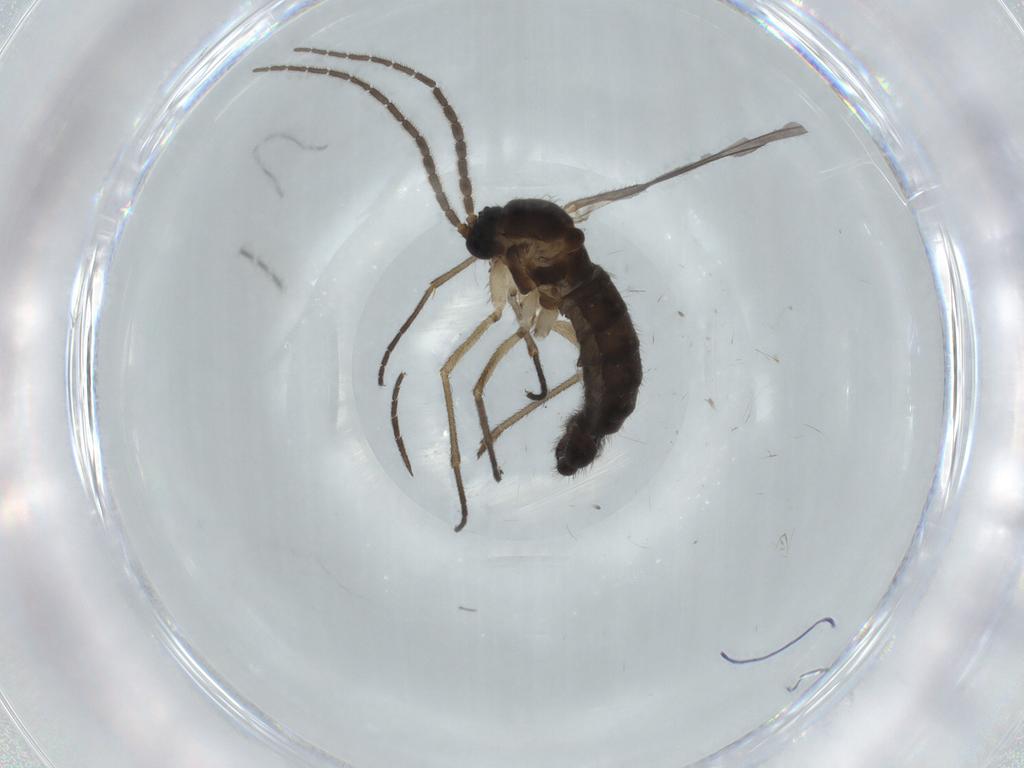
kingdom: Animalia
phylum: Arthropoda
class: Insecta
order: Diptera
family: Sciaridae
